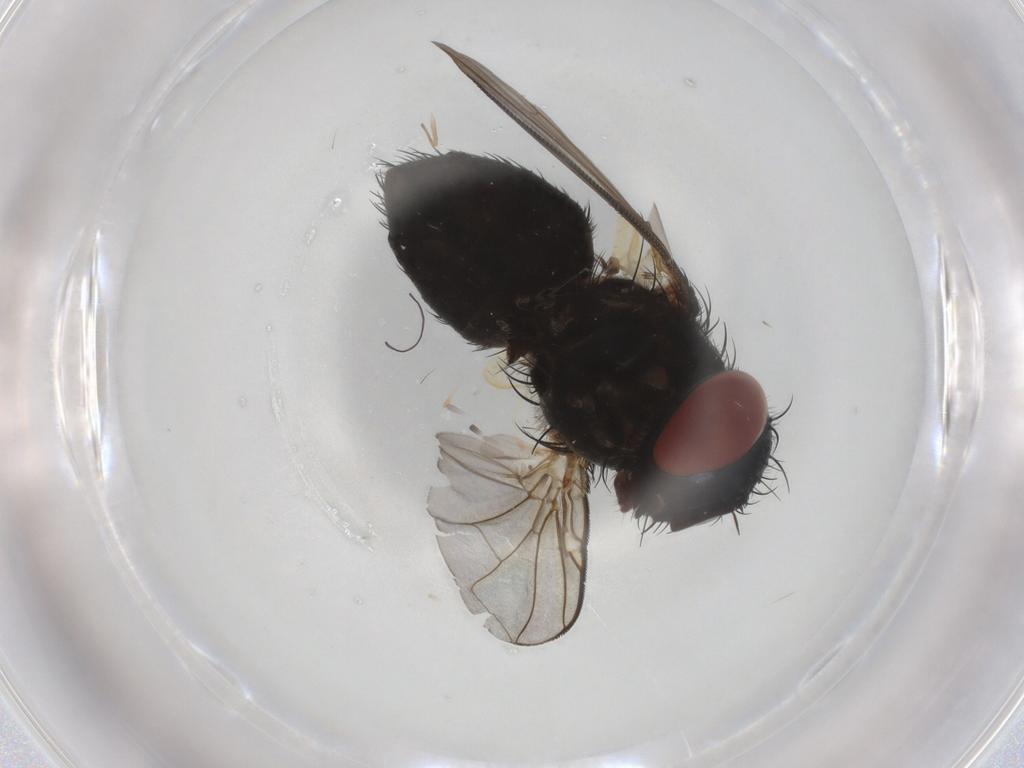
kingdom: Animalia
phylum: Arthropoda
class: Insecta
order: Diptera
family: Tachinidae
